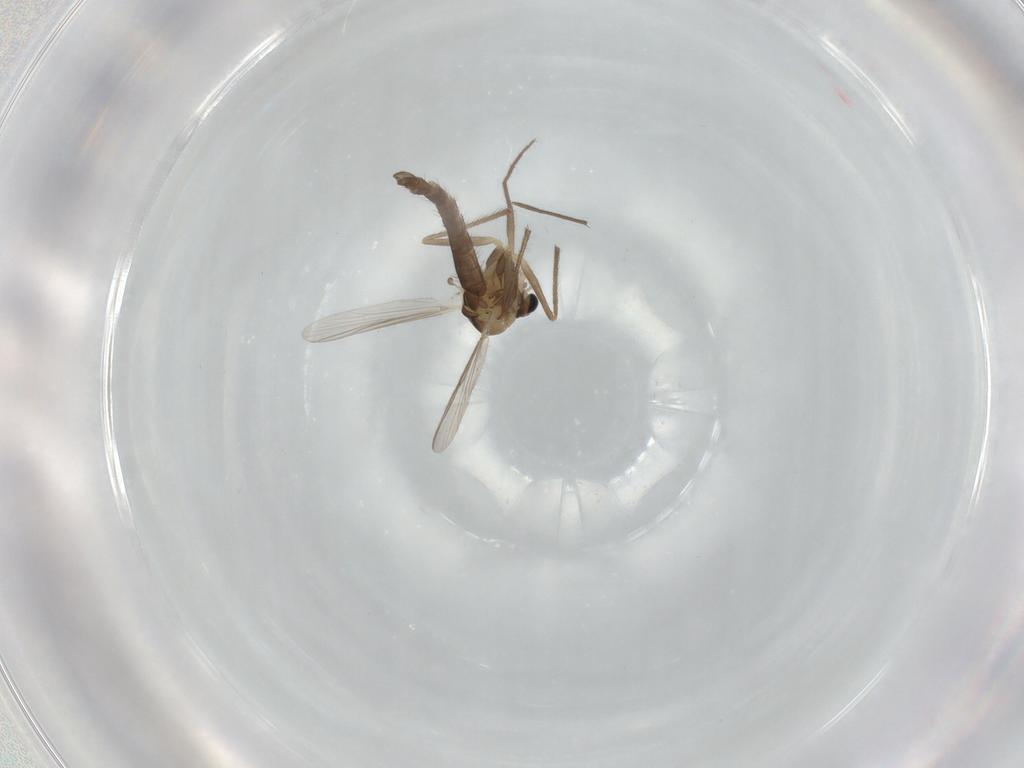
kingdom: Animalia
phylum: Arthropoda
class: Insecta
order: Diptera
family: Chironomidae
